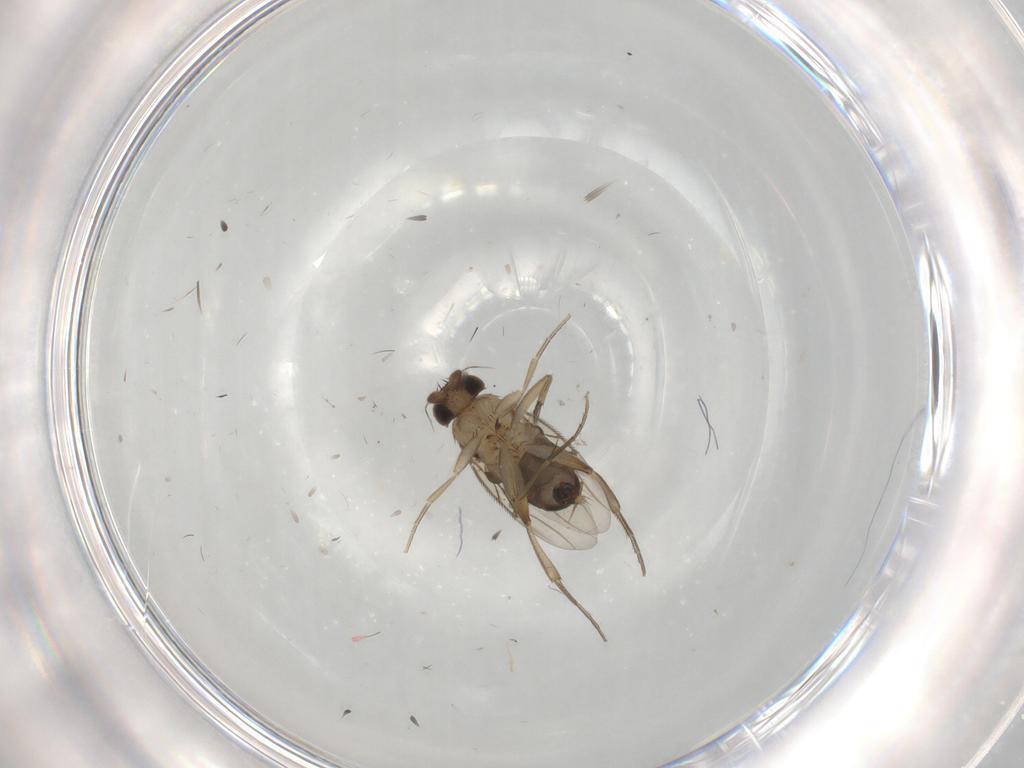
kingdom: Animalia
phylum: Arthropoda
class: Insecta
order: Diptera
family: Phoridae
